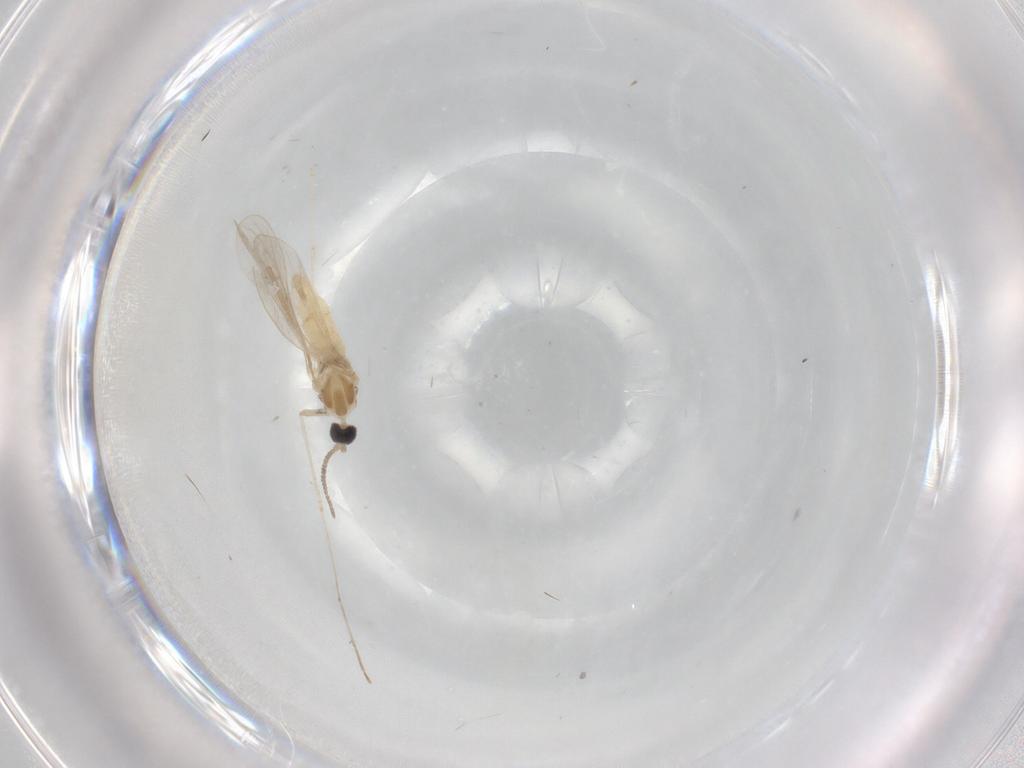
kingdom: Animalia
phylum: Arthropoda
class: Insecta
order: Diptera
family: Cecidomyiidae
